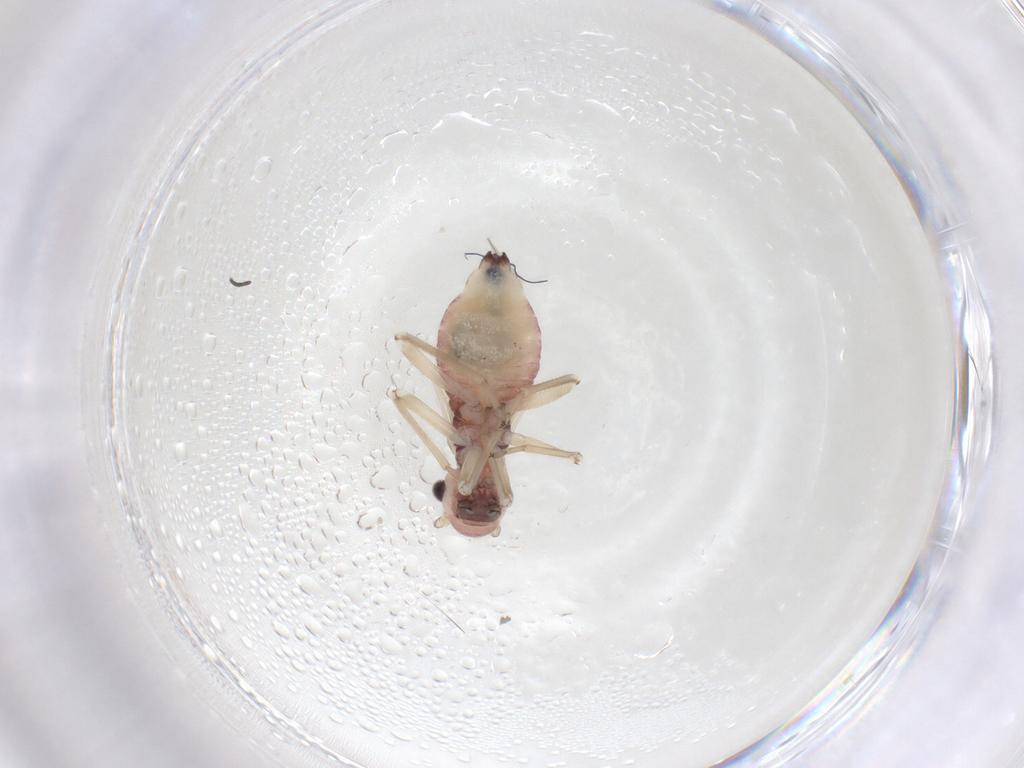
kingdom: Animalia
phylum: Arthropoda
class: Insecta
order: Psocodea
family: Caeciliusidae
